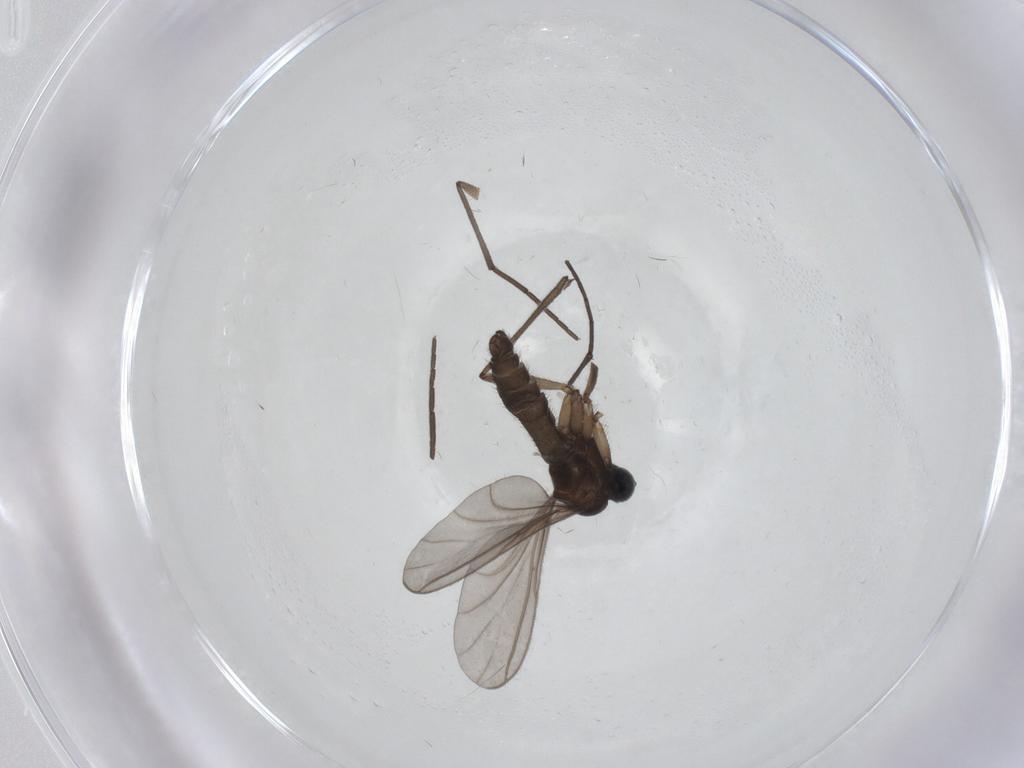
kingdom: Animalia
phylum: Arthropoda
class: Insecta
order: Diptera
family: Sciaridae
